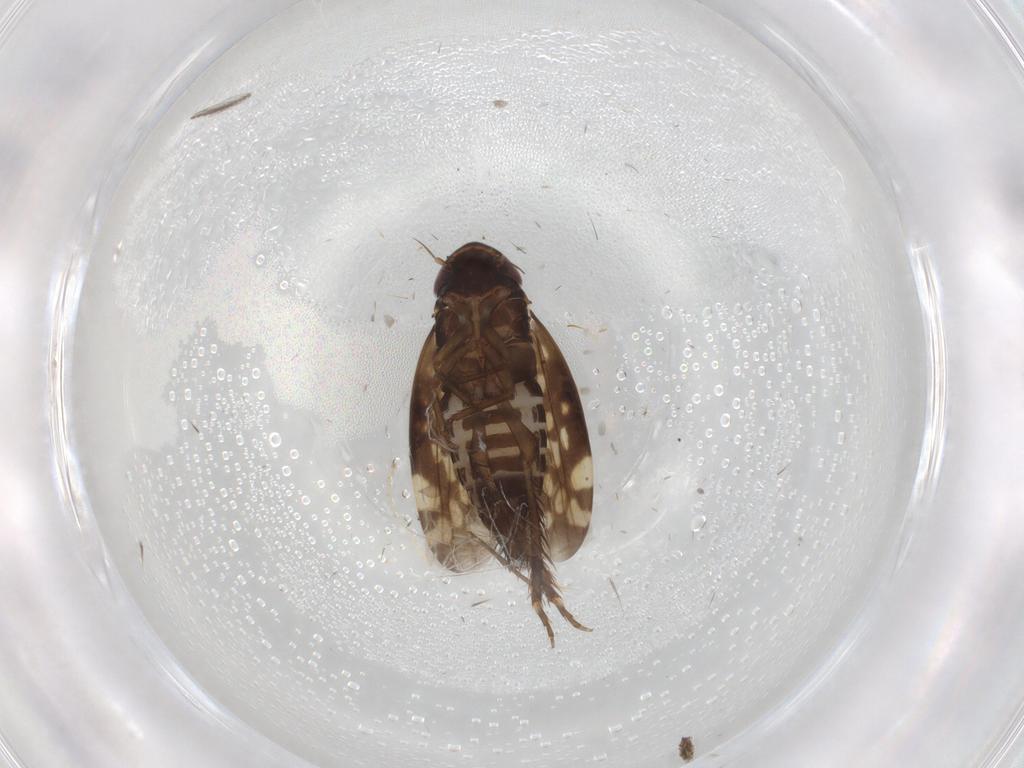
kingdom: Animalia
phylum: Arthropoda
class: Insecta
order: Hemiptera
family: Cicadellidae
